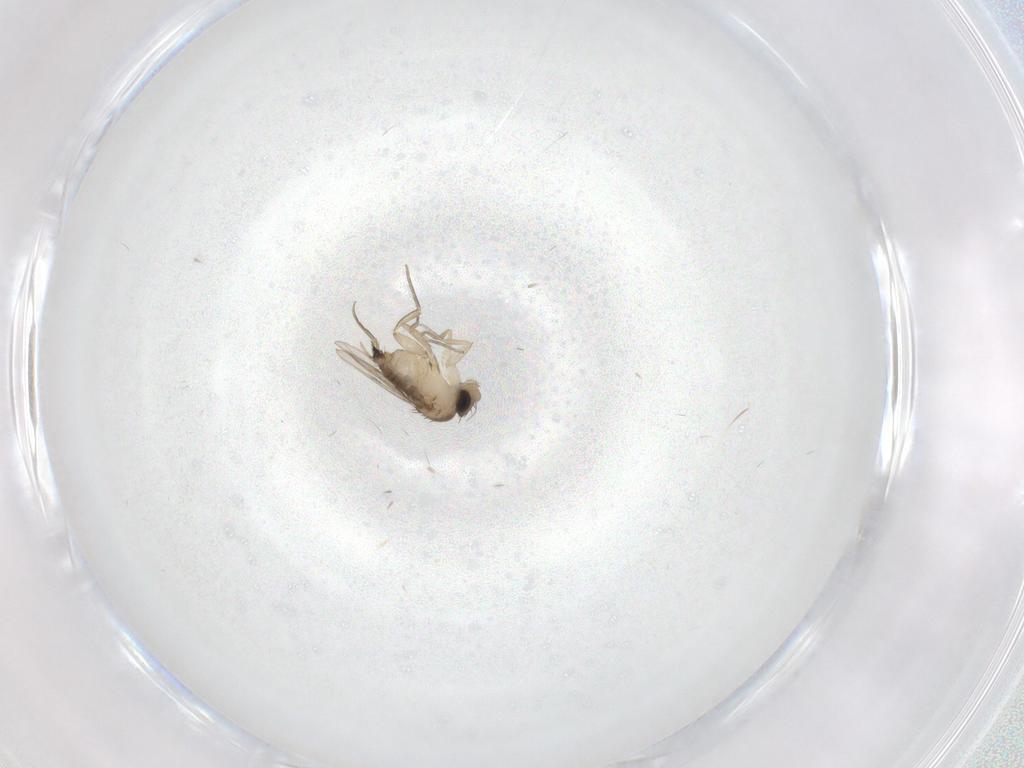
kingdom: Animalia
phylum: Arthropoda
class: Insecta
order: Diptera
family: Phoridae
